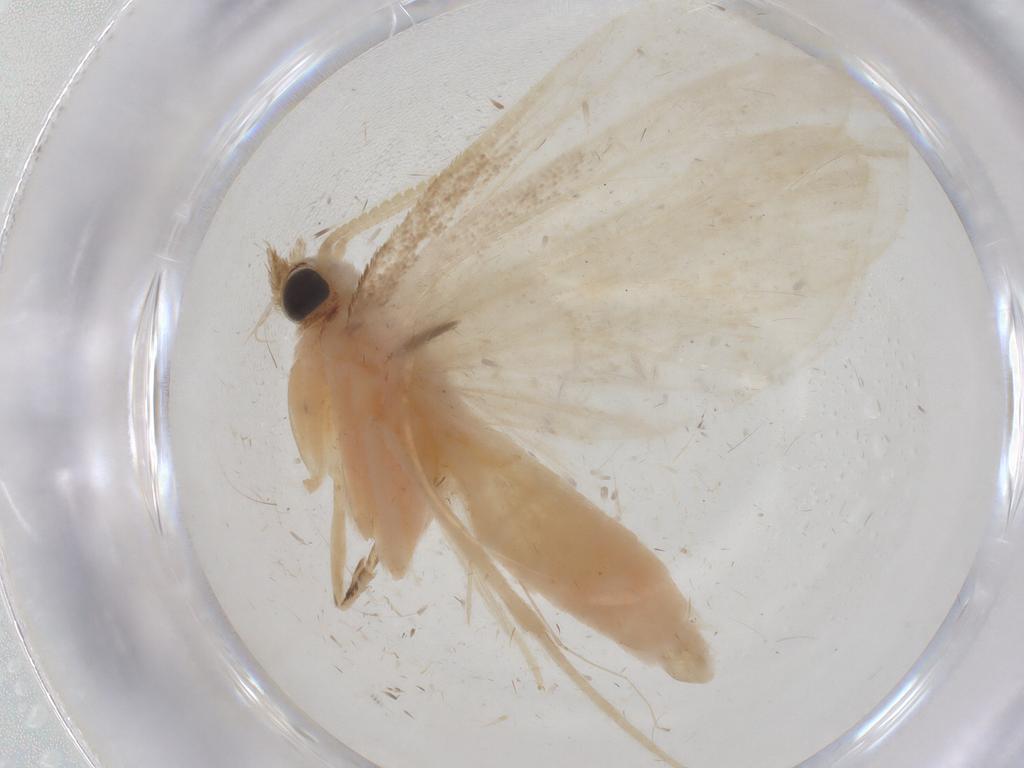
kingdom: Animalia
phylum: Arthropoda
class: Insecta
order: Lepidoptera
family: Crambidae
